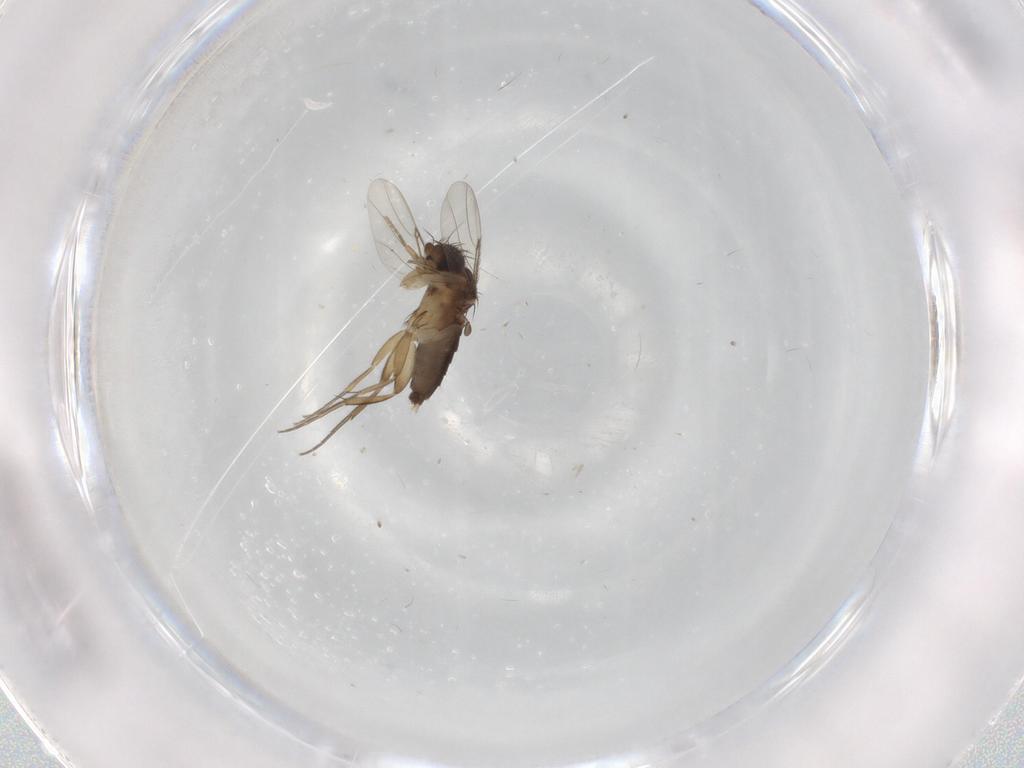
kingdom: Animalia
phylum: Arthropoda
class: Insecta
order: Diptera
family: Phoridae
